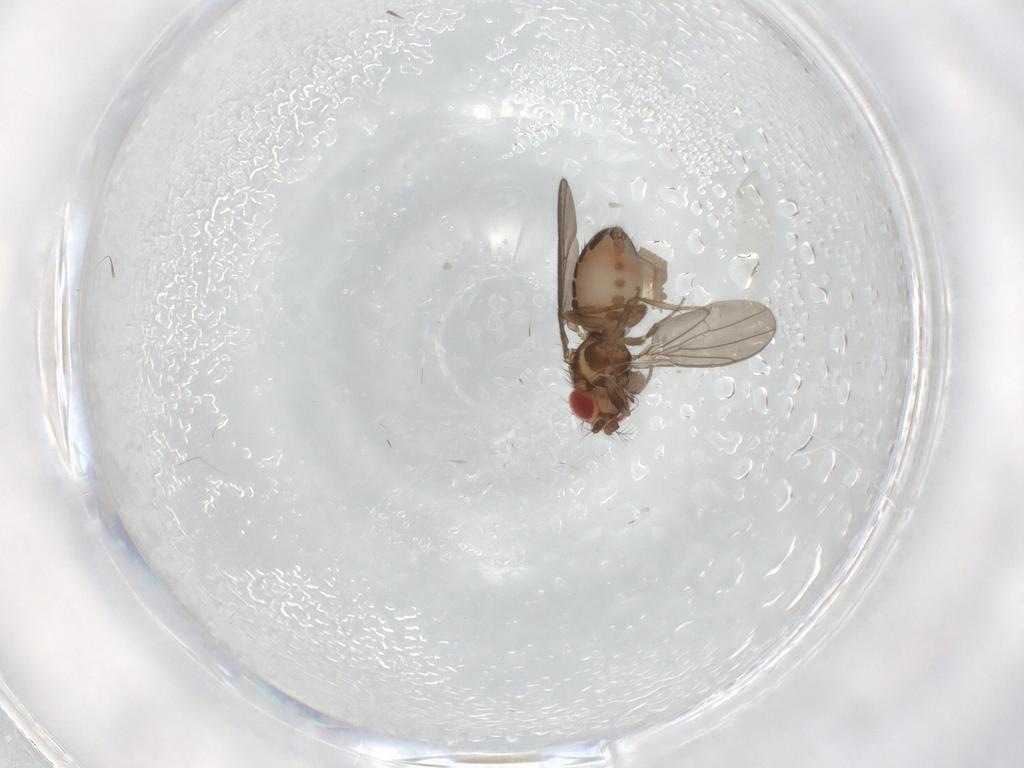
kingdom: Animalia
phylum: Arthropoda
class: Insecta
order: Diptera
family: Drosophilidae
